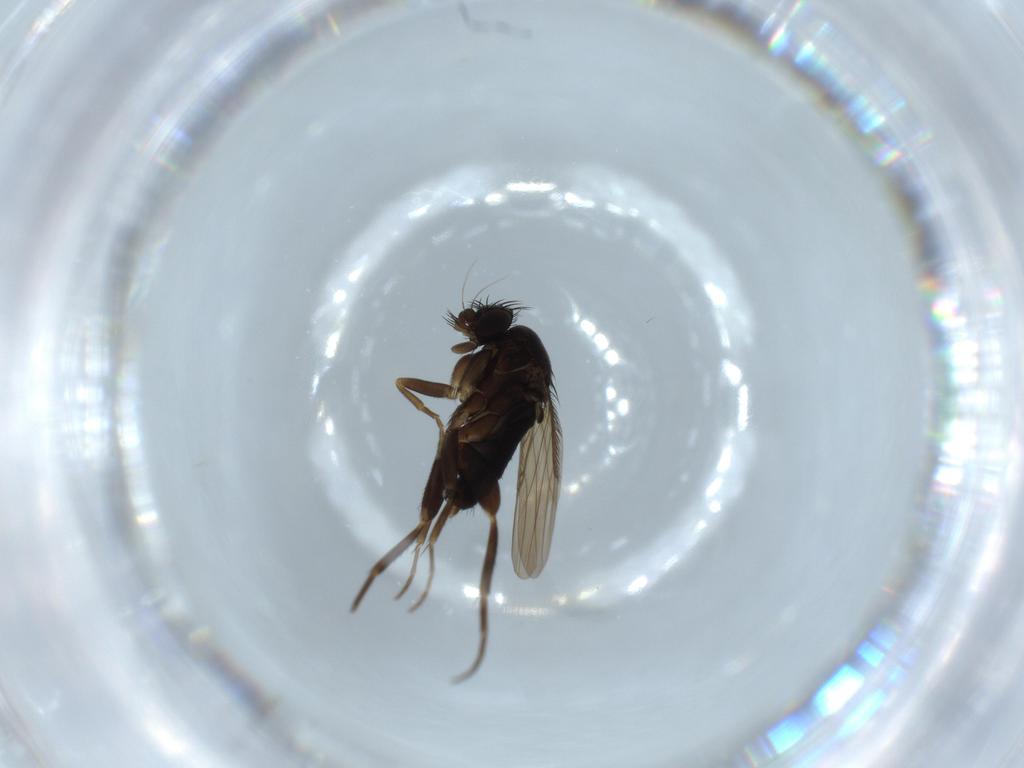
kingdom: Animalia
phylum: Arthropoda
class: Insecta
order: Diptera
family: Phoridae
